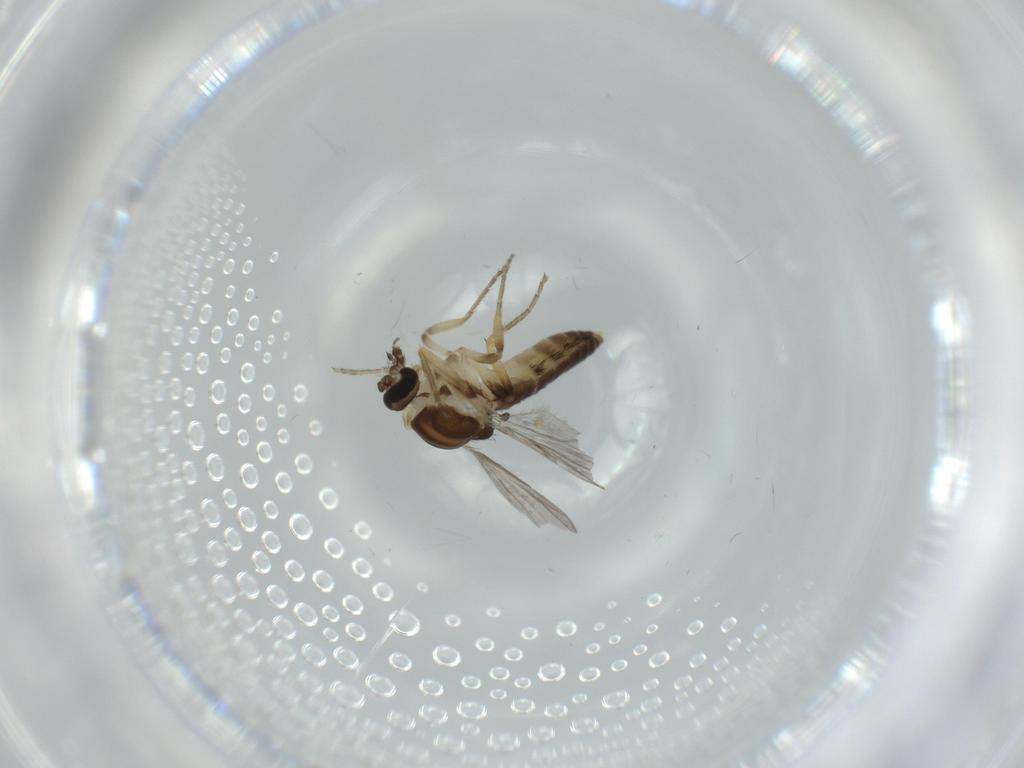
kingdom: Animalia
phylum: Arthropoda
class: Insecta
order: Diptera
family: Ceratopogonidae
